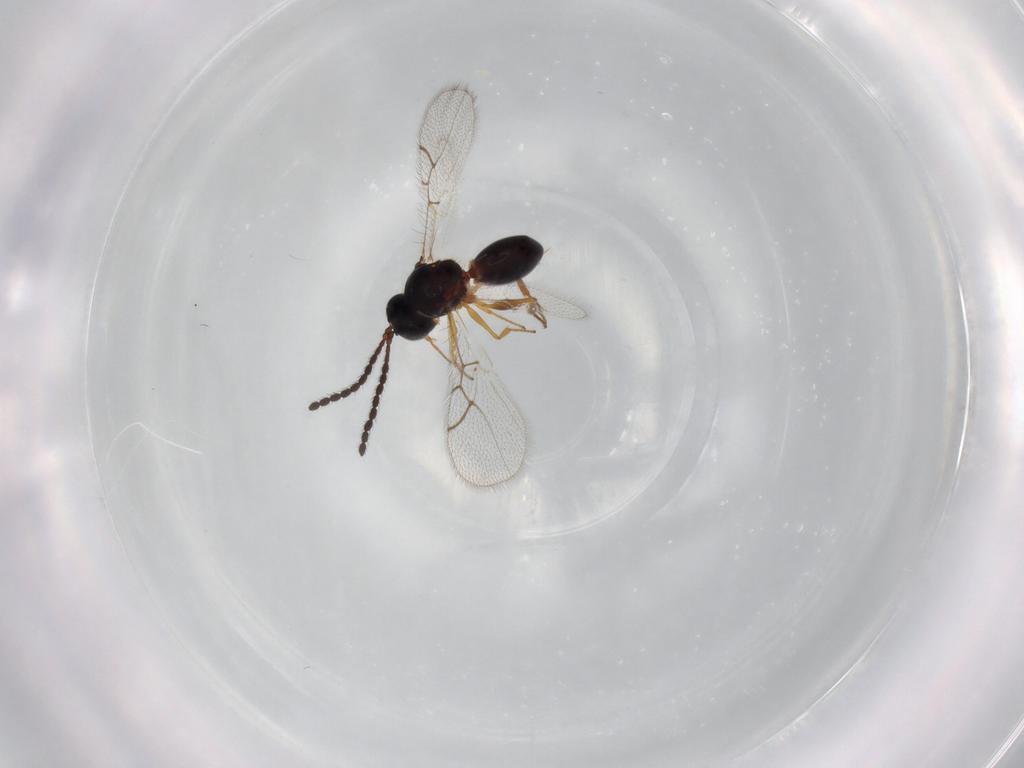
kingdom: Animalia
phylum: Arthropoda
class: Insecta
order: Hymenoptera
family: Figitidae
